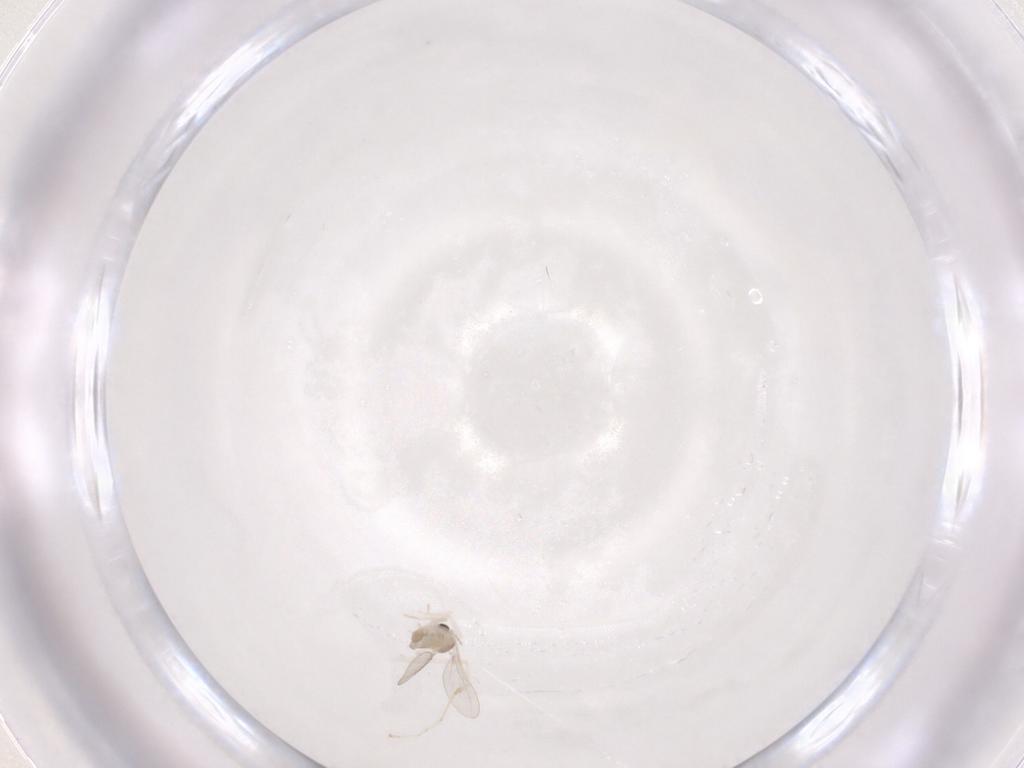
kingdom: Animalia
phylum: Arthropoda
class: Insecta
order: Diptera
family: Cecidomyiidae
